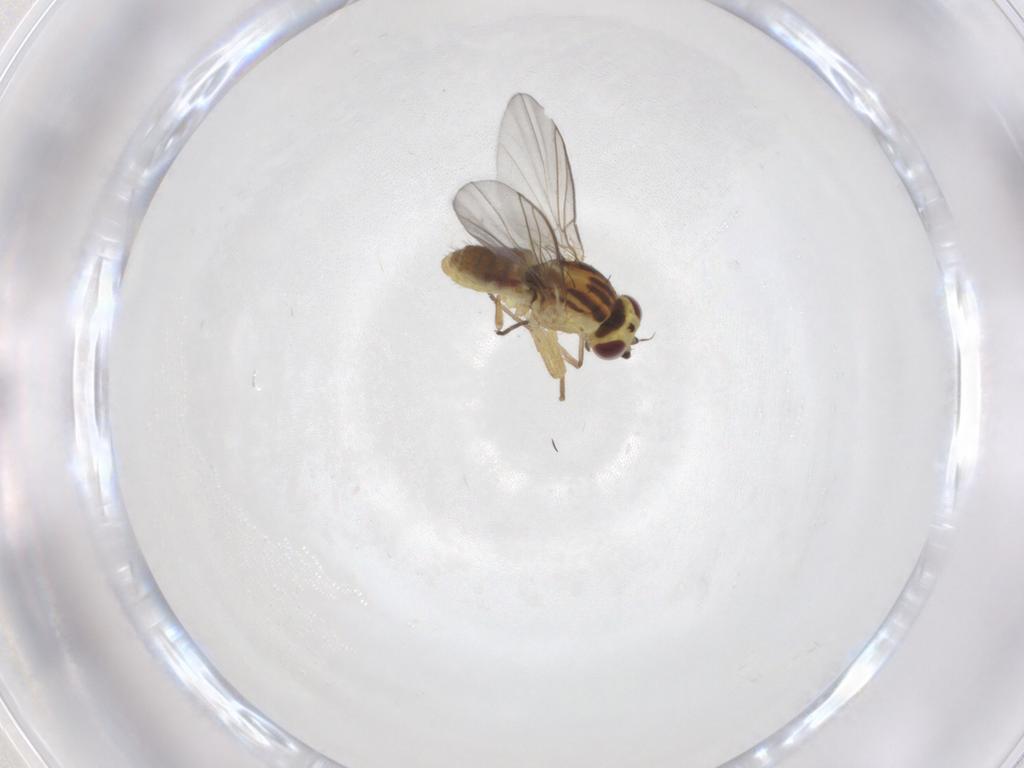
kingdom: Animalia
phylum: Arthropoda
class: Insecta
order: Diptera
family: Agromyzidae
